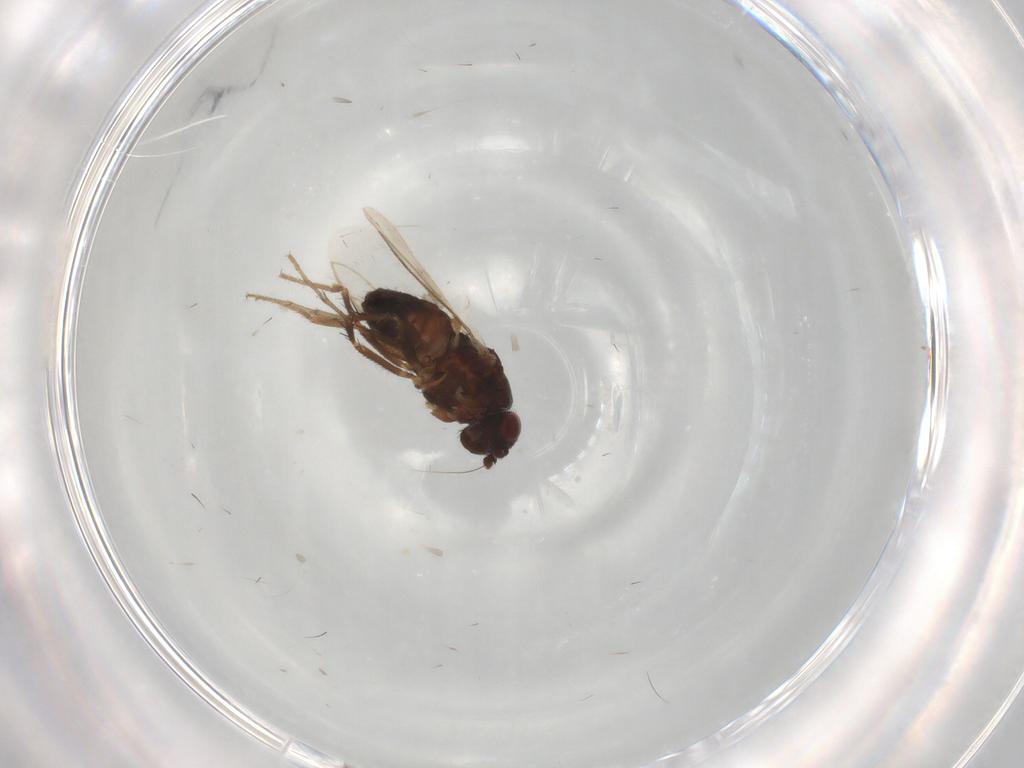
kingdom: Animalia
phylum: Arthropoda
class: Insecta
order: Diptera
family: Sphaeroceridae
